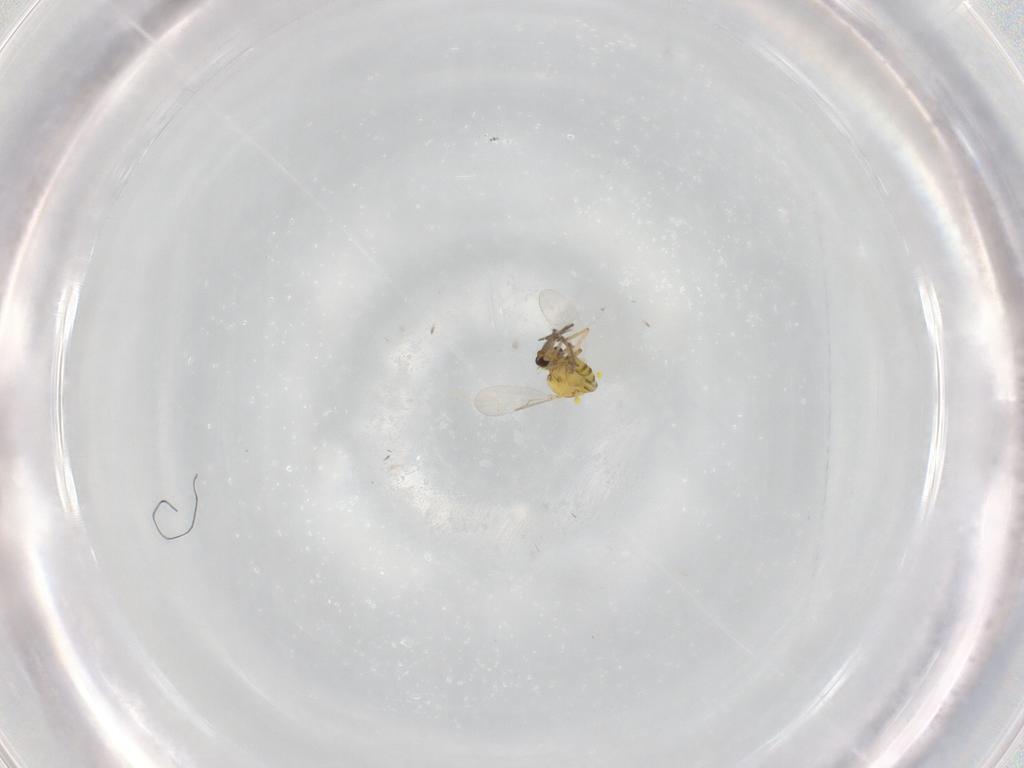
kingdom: Animalia
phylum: Arthropoda
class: Insecta
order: Diptera
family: Ceratopogonidae
